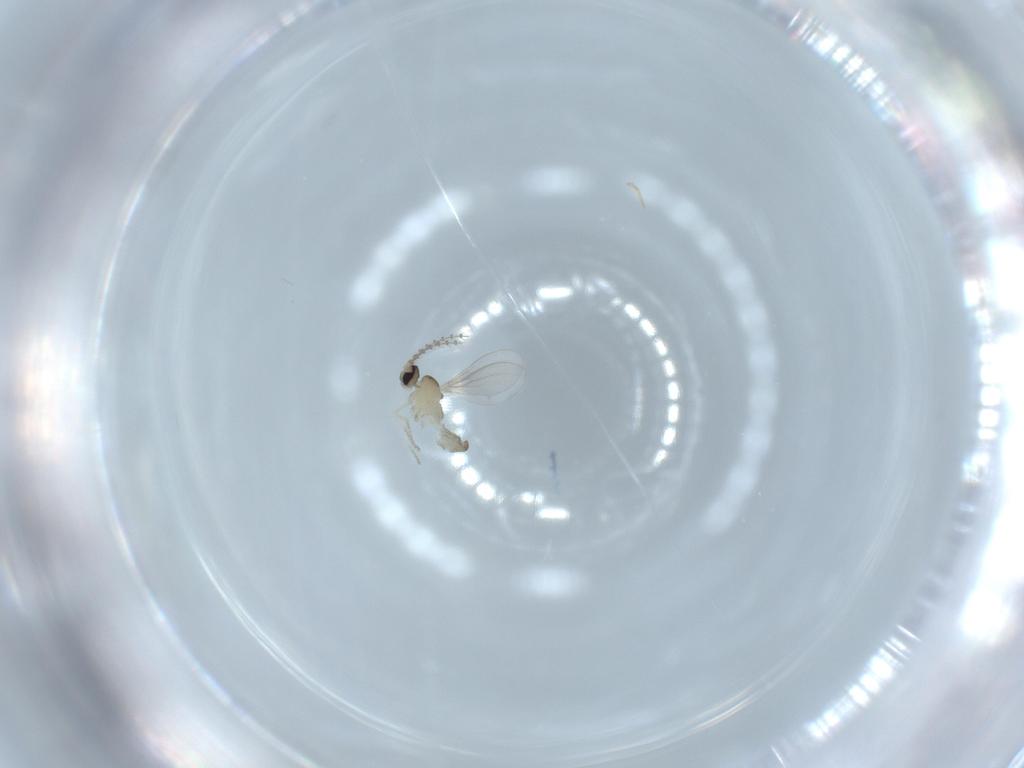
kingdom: Animalia
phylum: Arthropoda
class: Insecta
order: Diptera
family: Cecidomyiidae
